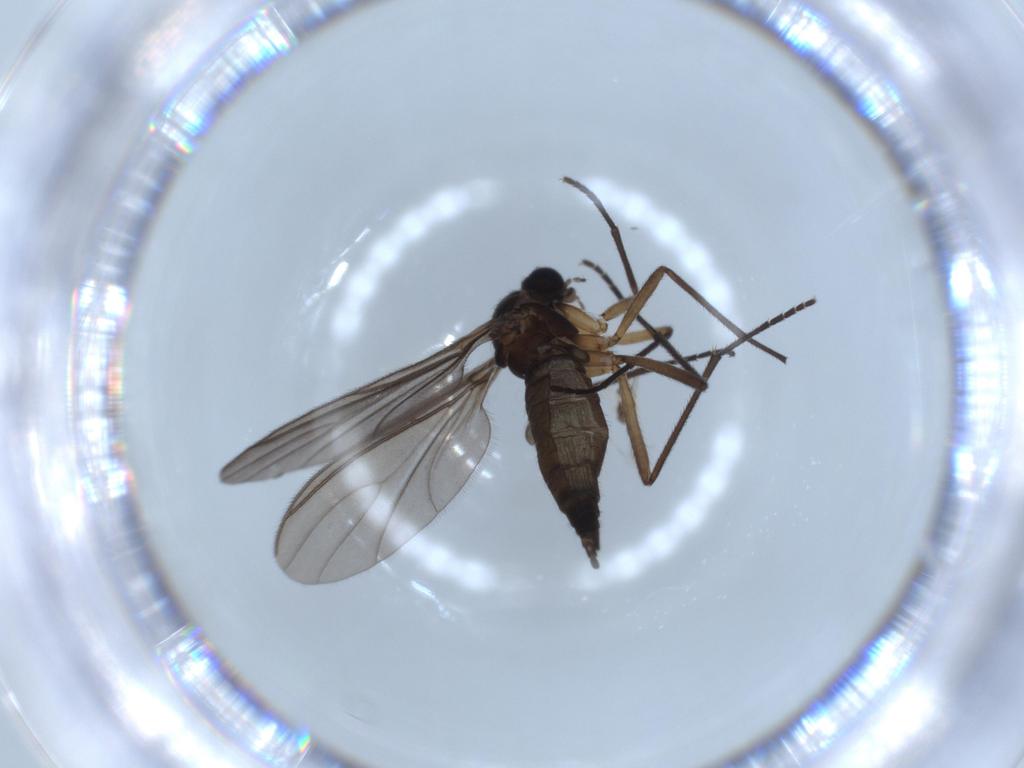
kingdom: Animalia
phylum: Arthropoda
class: Insecta
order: Diptera
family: Sciaridae
